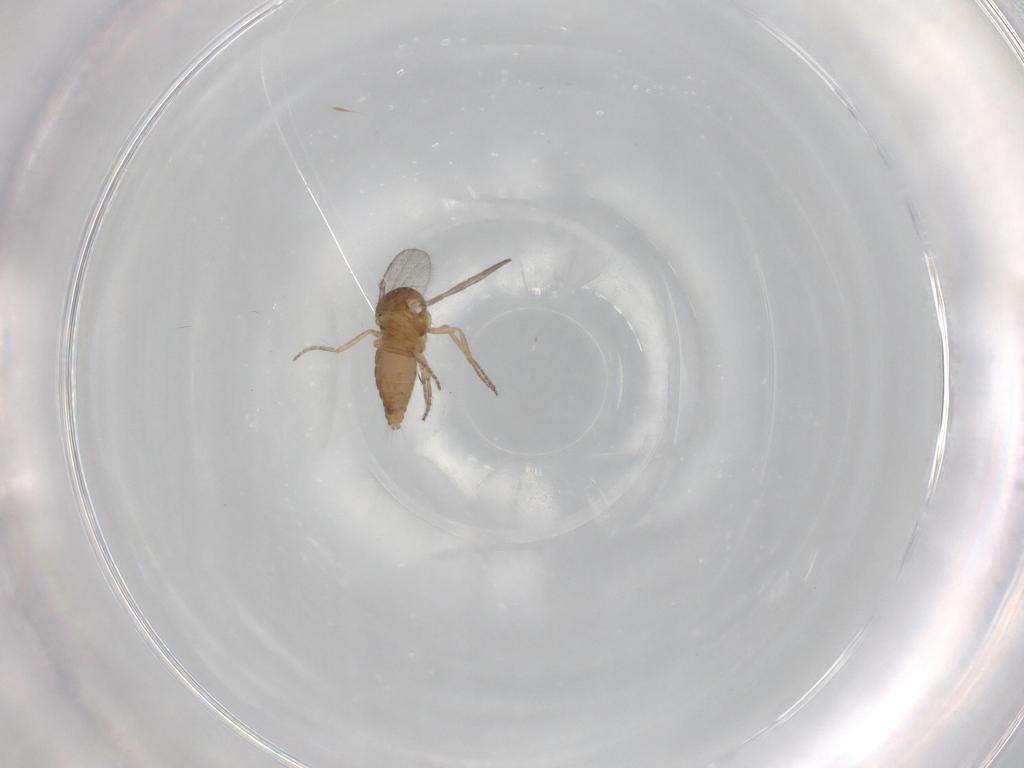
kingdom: Animalia
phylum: Arthropoda
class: Insecta
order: Diptera
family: Ceratopogonidae
